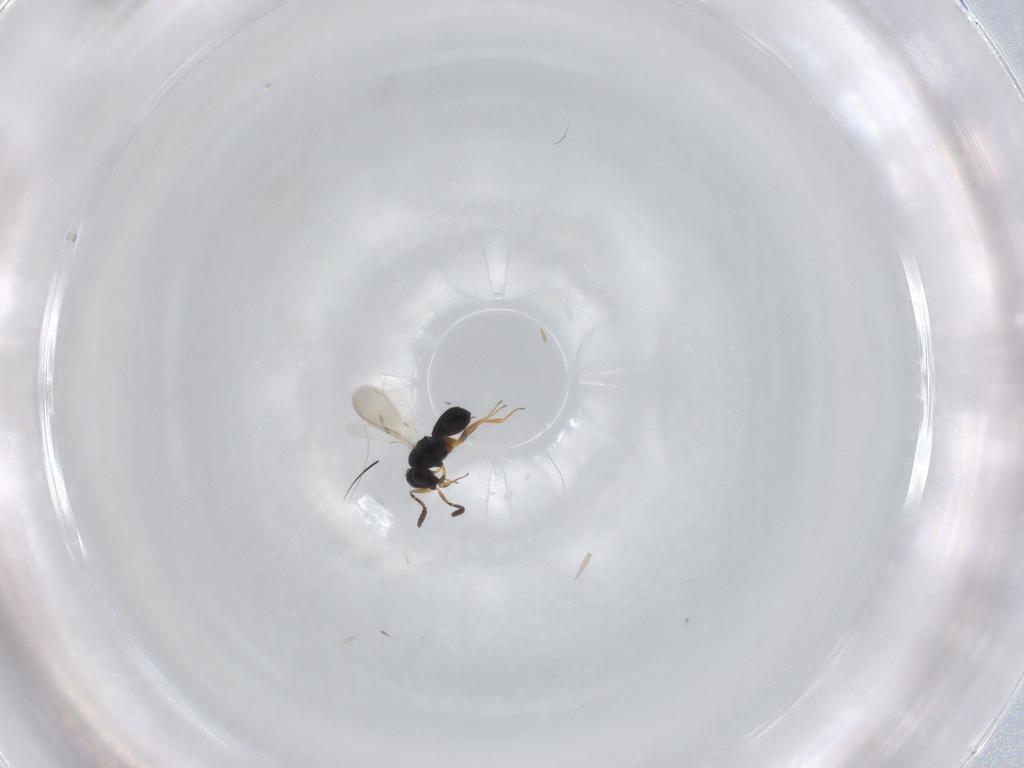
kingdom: Animalia
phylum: Arthropoda
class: Insecta
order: Hymenoptera
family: Scelionidae
